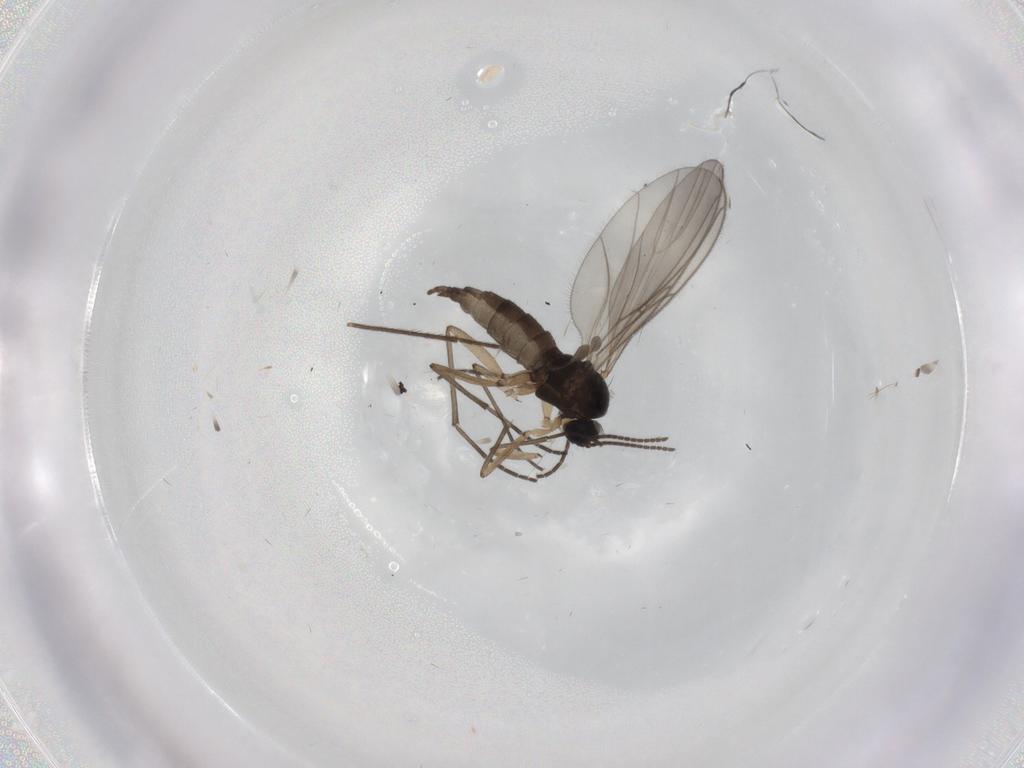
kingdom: Animalia
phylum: Arthropoda
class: Insecta
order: Diptera
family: Sciaridae
